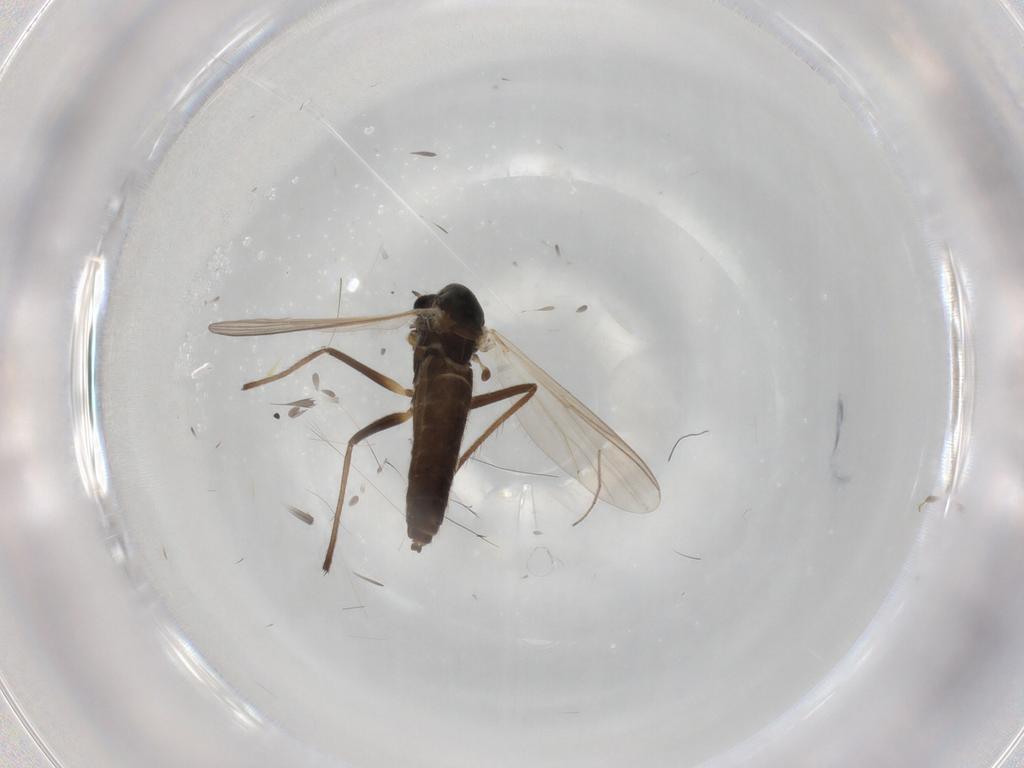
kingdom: Animalia
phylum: Arthropoda
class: Insecta
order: Diptera
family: Chironomidae
